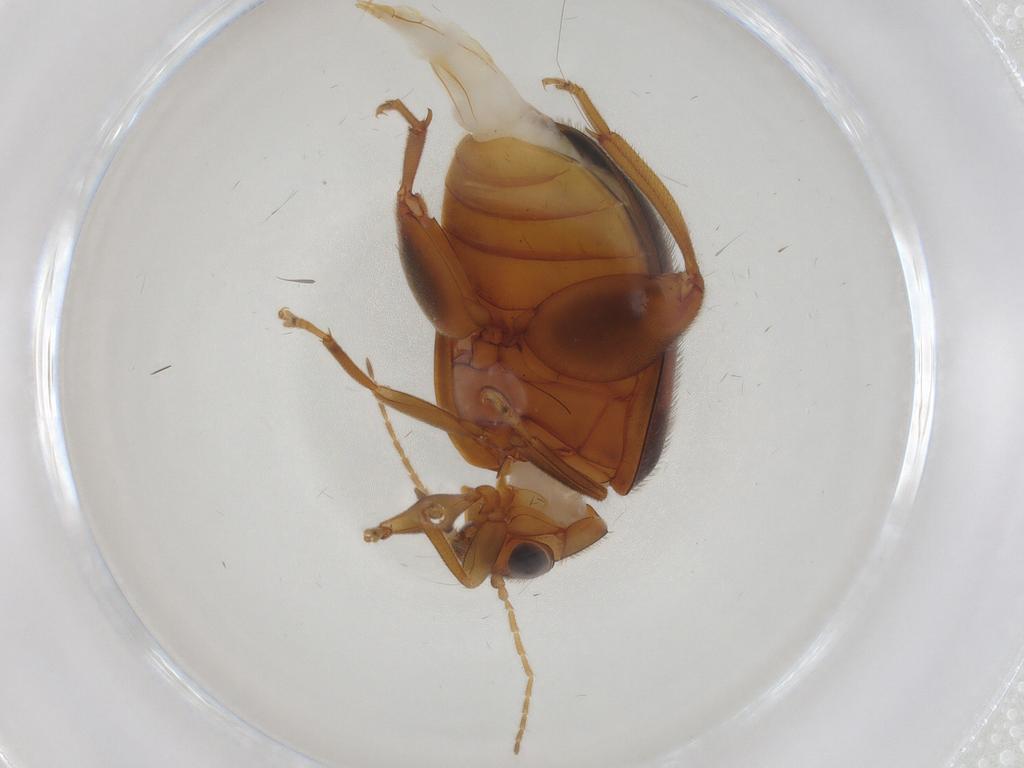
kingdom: Animalia
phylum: Arthropoda
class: Insecta
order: Coleoptera
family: Scirtidae
